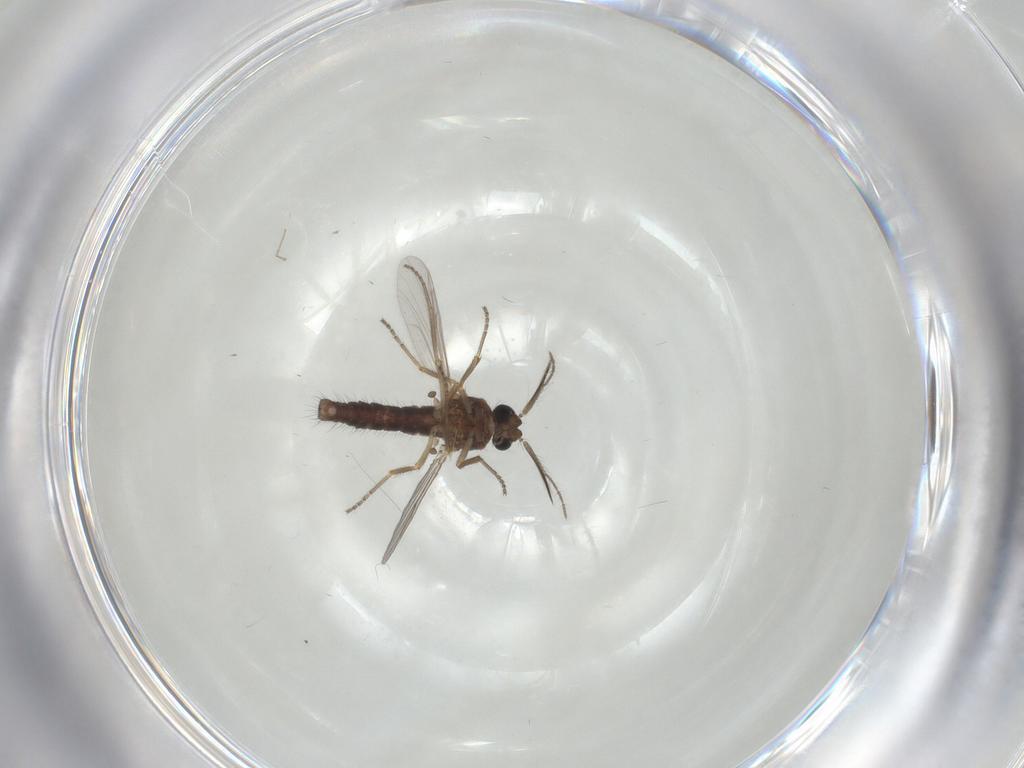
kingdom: Animalia
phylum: Arthropoda
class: Insecta
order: Diptera
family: Ceratopogonidae
